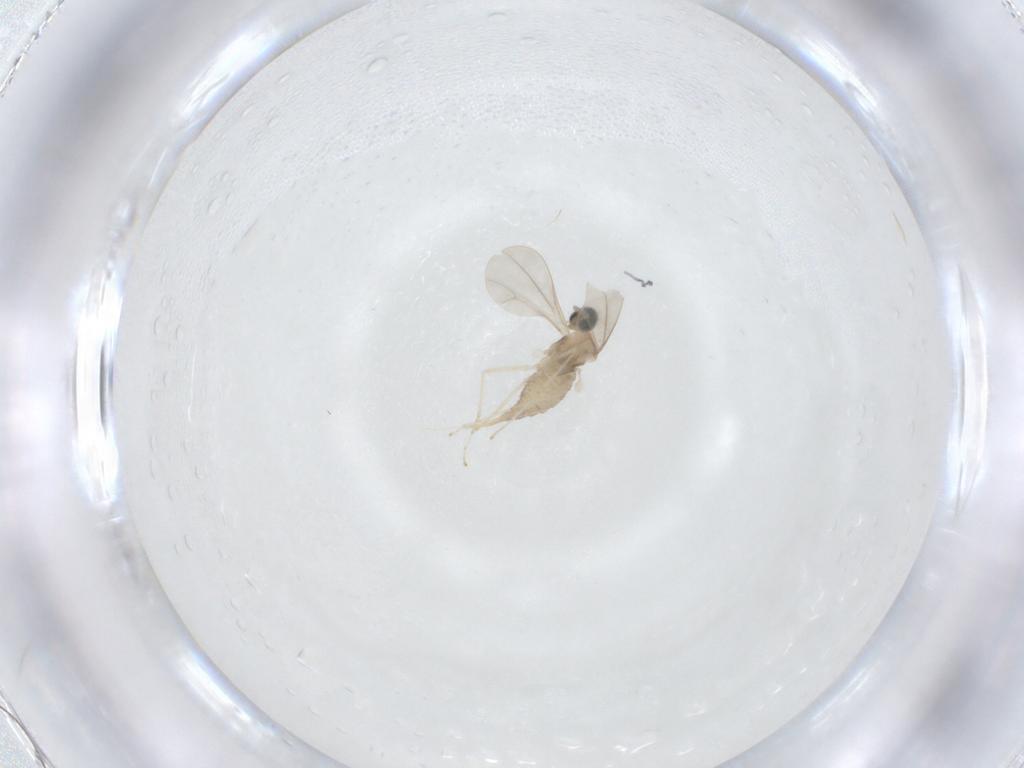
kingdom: Animalia
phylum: Arthropoda
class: Insecta
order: Diptera
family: Cecidomyiidae
